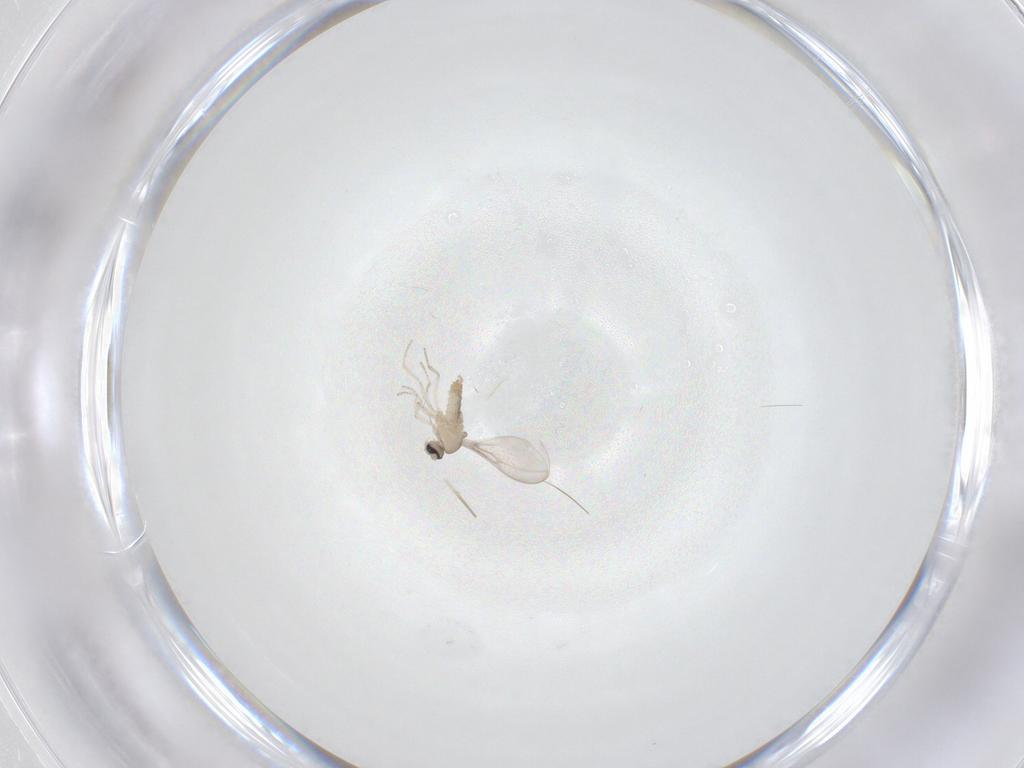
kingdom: Animalia
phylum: Arthropoda
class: Insecta
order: Diptera
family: Cecidomyiidae
